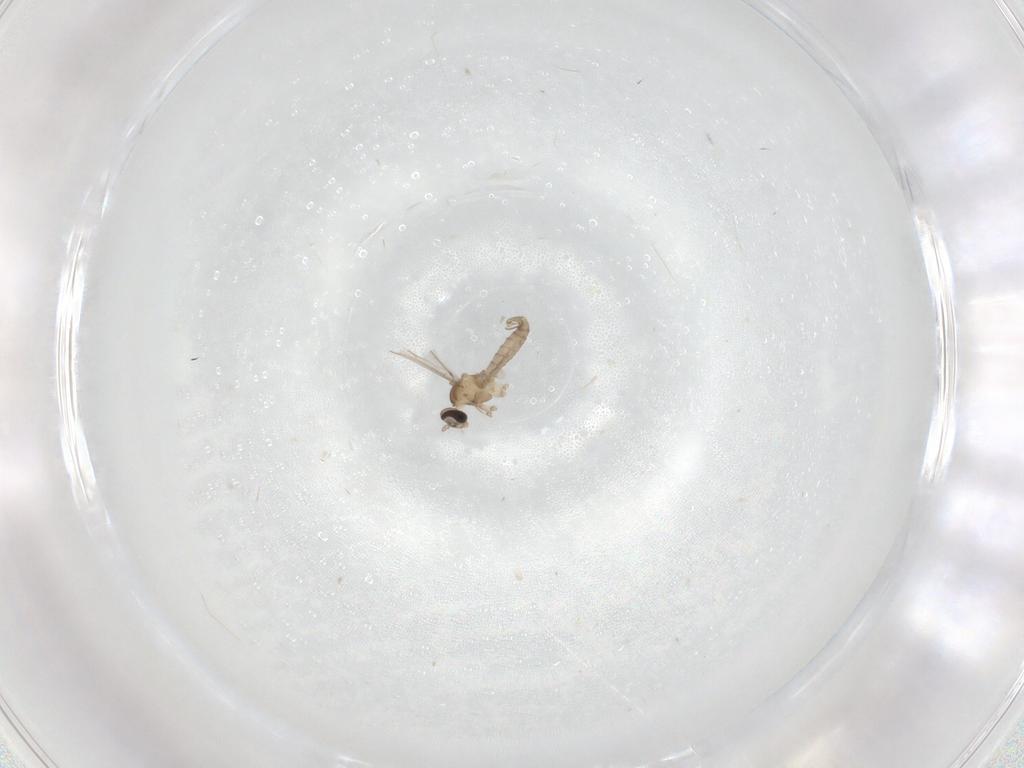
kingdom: Animalia
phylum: Arthropoda
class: Insecta
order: Diptera
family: Cecidomyiidae
